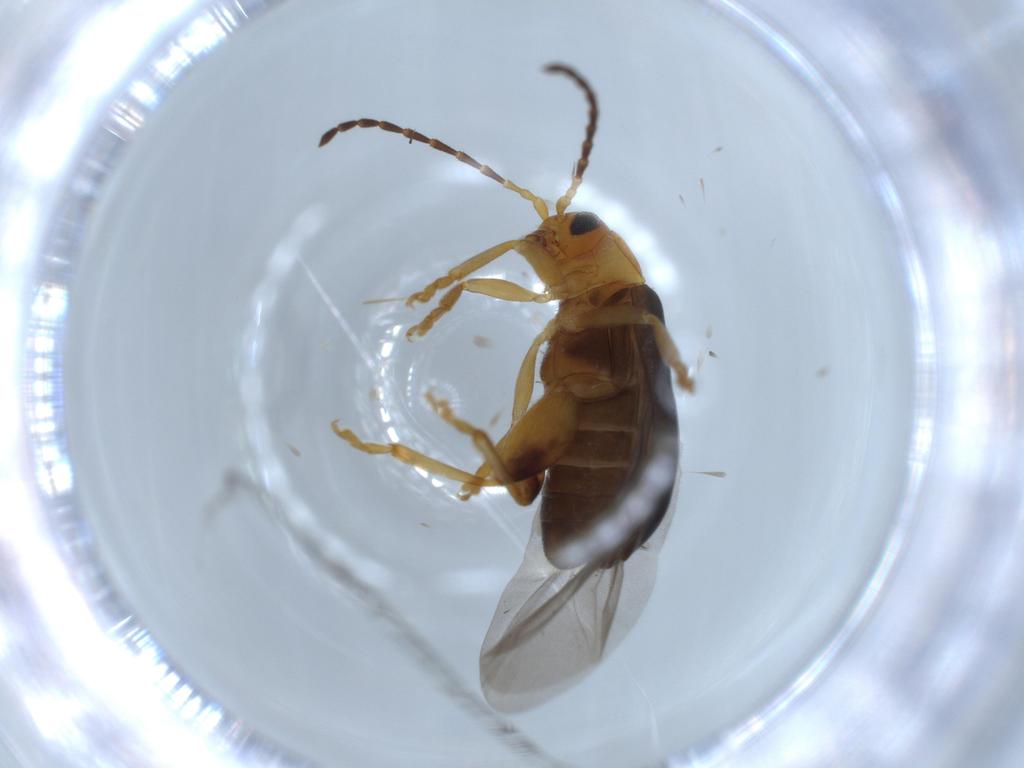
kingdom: Animalia
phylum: Arthropoda
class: Insecta
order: Coleoptera
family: Chrysomelidae
